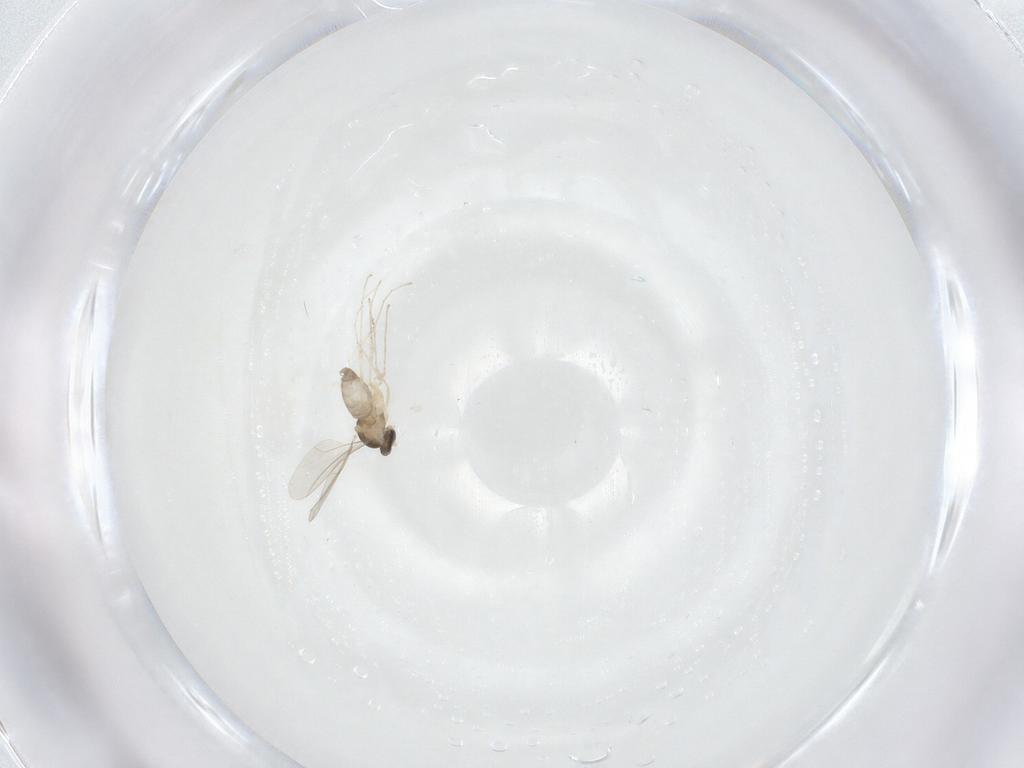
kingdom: Animalia
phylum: Arthropoda
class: Insecta
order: Diptera
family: Cecidomyiidae
